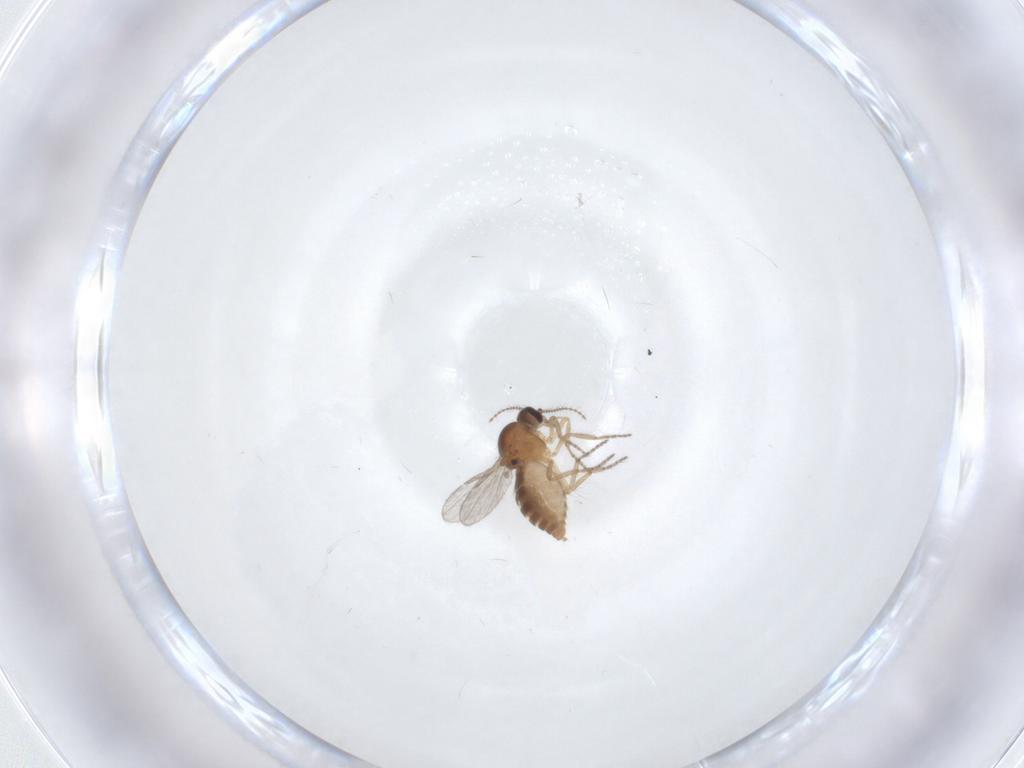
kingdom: Animalia
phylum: Arthropoda
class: Insecta
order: Diptera
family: Ceratopogonidae
